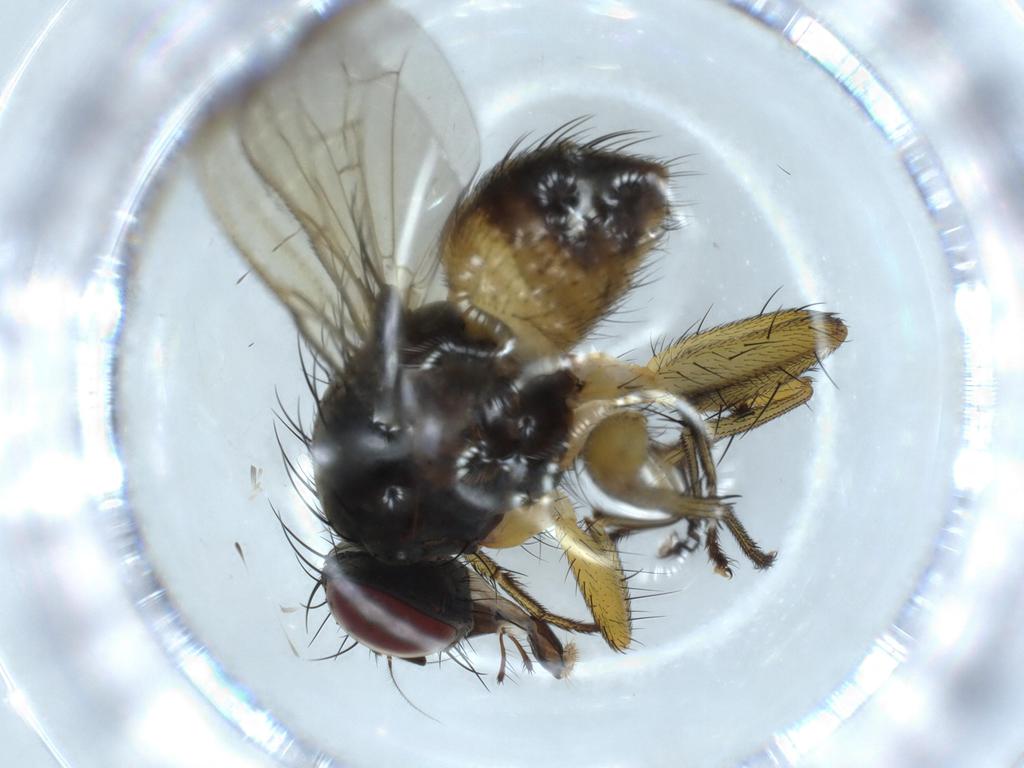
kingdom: Animalia
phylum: Arthropoda
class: Insecta
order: Diptera
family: Muscidae
